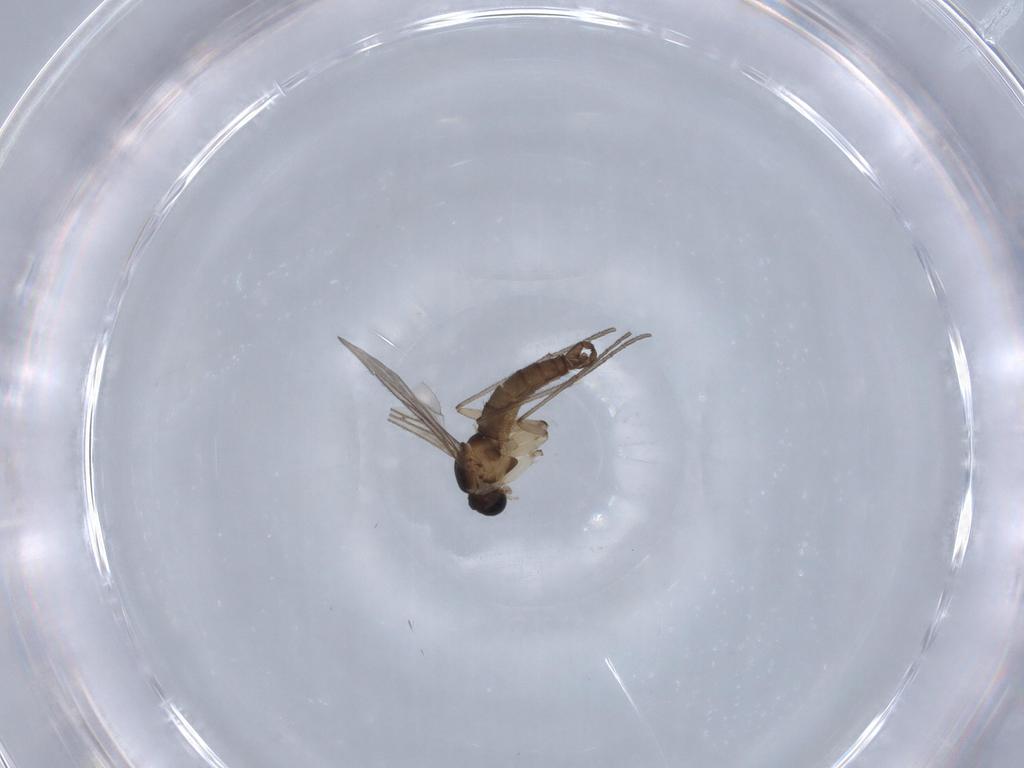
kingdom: Animalia
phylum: Arthropoda
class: Insecta
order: Diptera
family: Sciaridae
